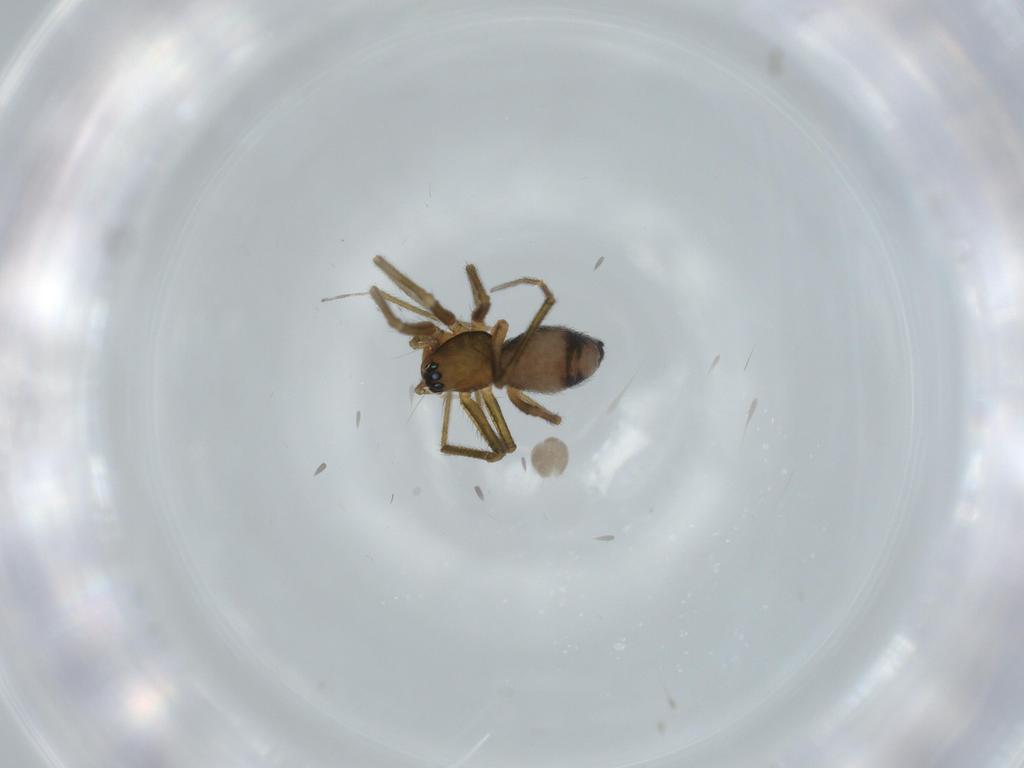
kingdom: Animalia
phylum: Arthropoda
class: Arachnida
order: Araneae
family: Linyphiidae
